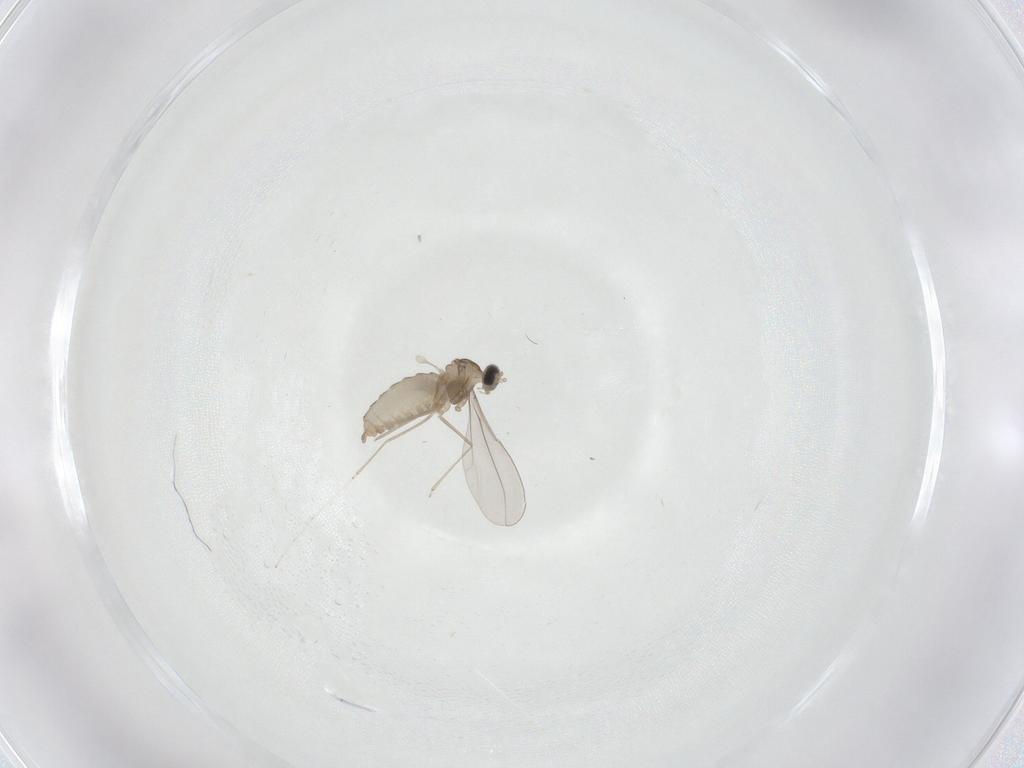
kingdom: Animalia
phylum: Arthropoda
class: Insecta
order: Diptera
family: Cecidomyiidae
